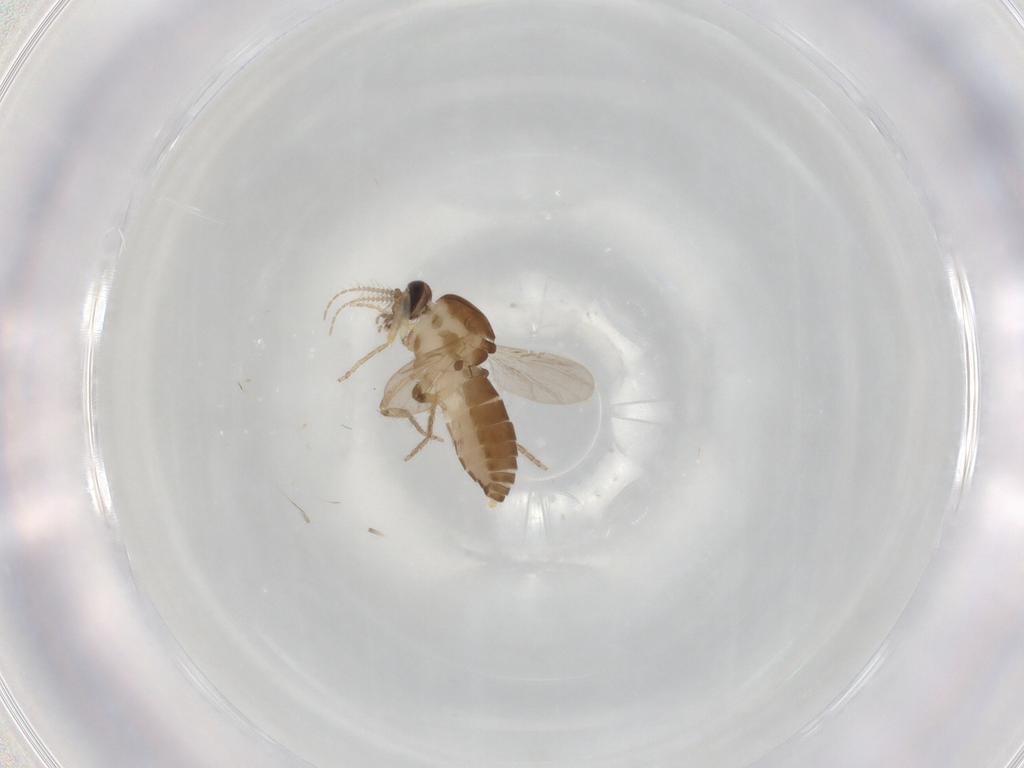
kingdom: Animalia
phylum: Arthropoda
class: Insecta
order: Diptera
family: Ceratopogonidae
